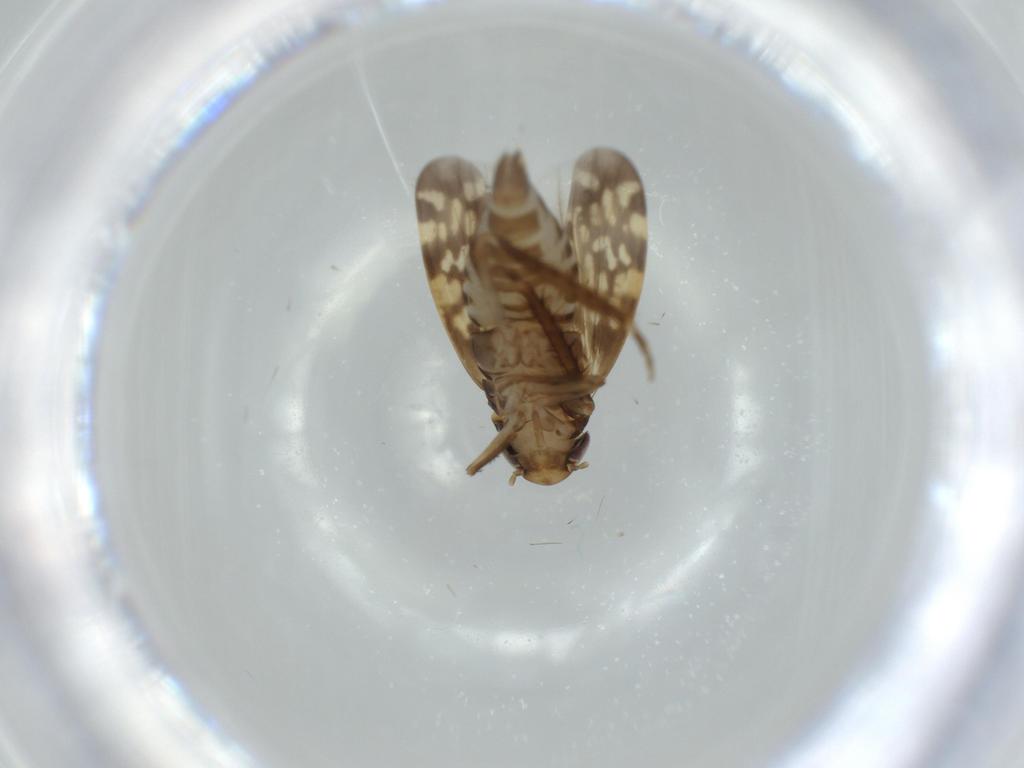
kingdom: Animalia
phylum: Arthropoda
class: Insecta
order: Hemiptera
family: Cicadellidae
